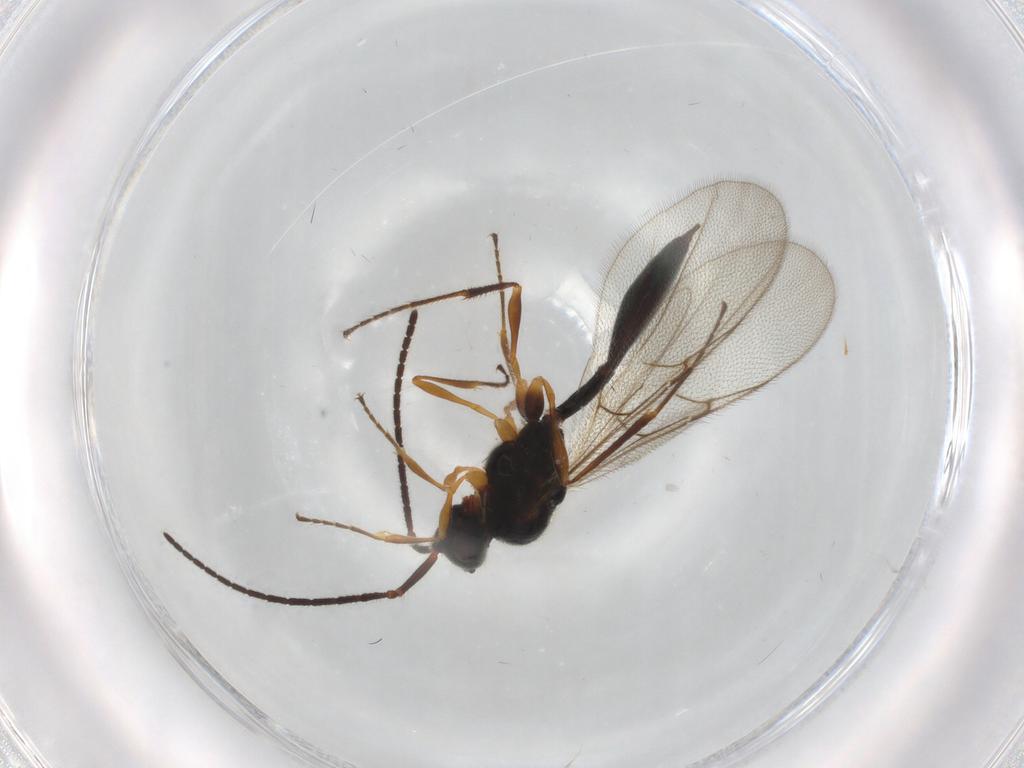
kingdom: Animalia
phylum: Arthropoda
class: Insecta
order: Hymenoptera
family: Diapriidae
